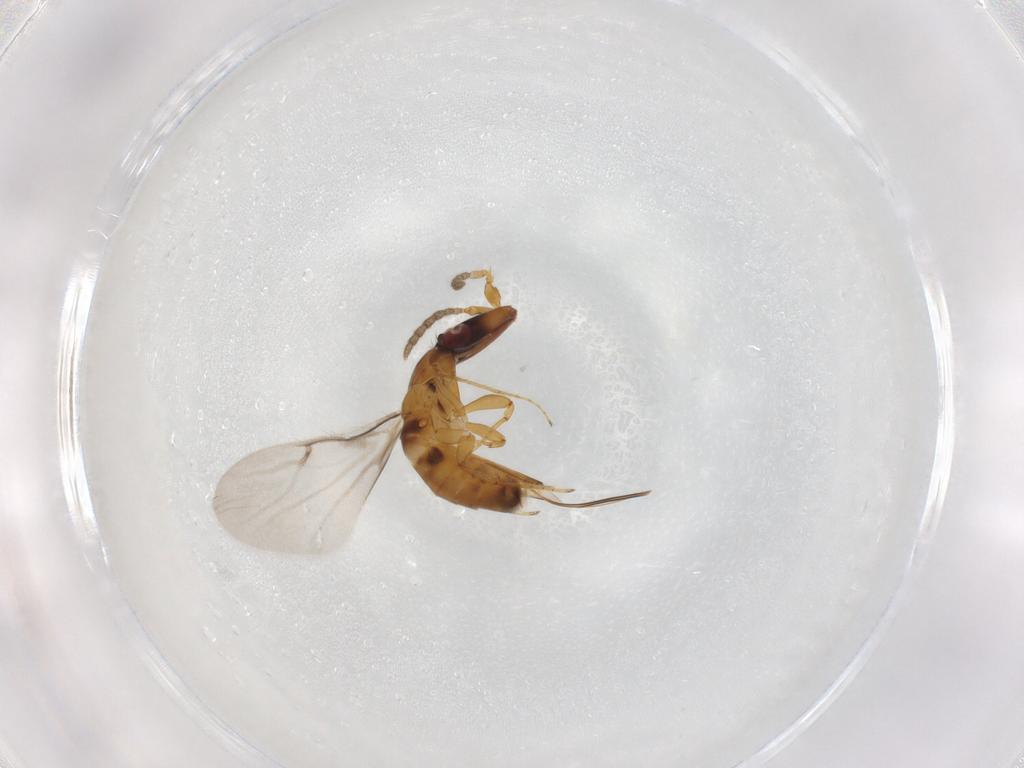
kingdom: Animalia
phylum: Arthropoda
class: Insecta
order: Hymenoptera
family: Agaonidae
